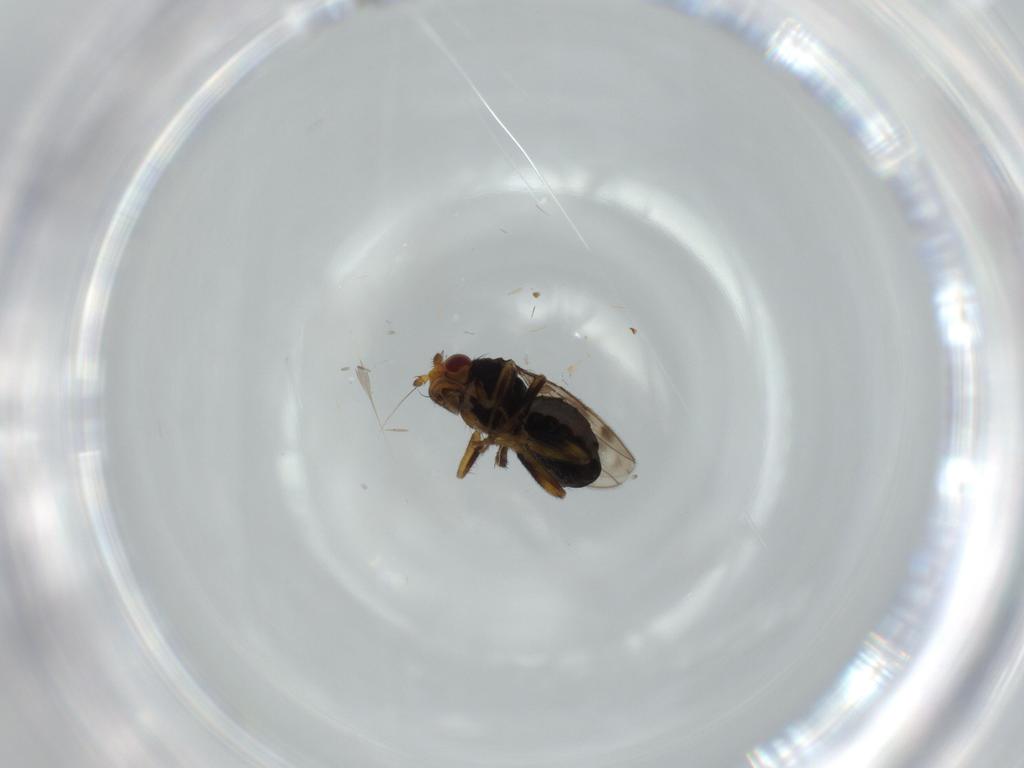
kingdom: Animalia
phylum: Arthropoda
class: Insecta
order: Diptera
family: Sphaeroceridae
